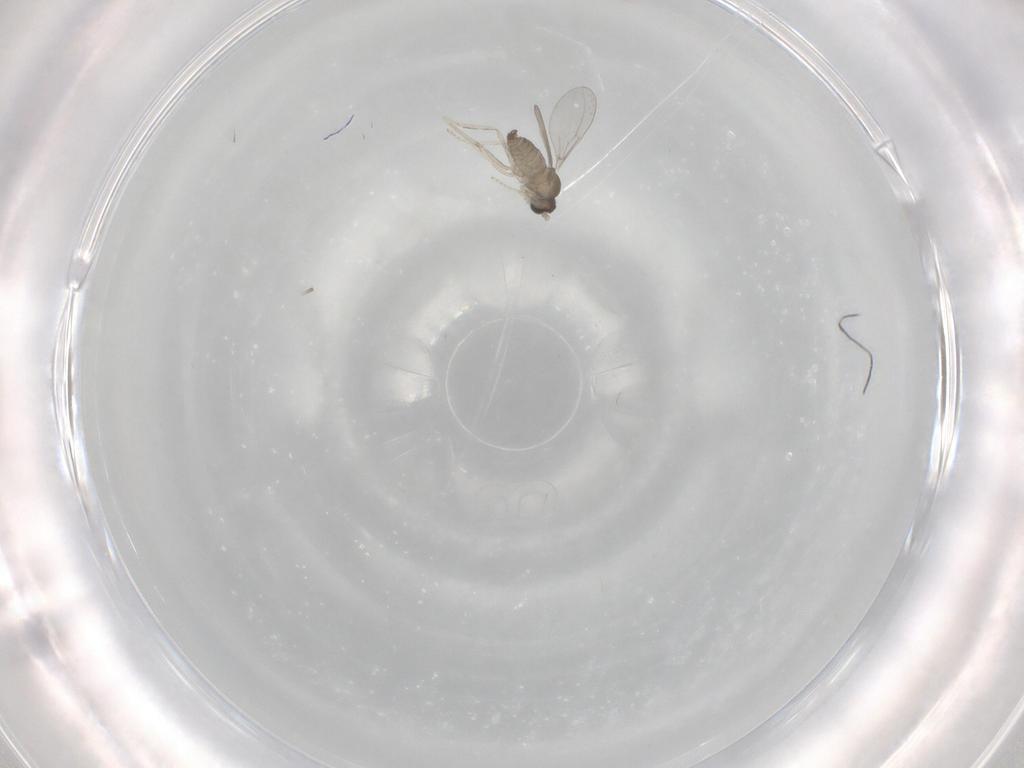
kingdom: Animalia
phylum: Arthropoda
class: Insecta
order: Diptera
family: Cecidomyiidae
